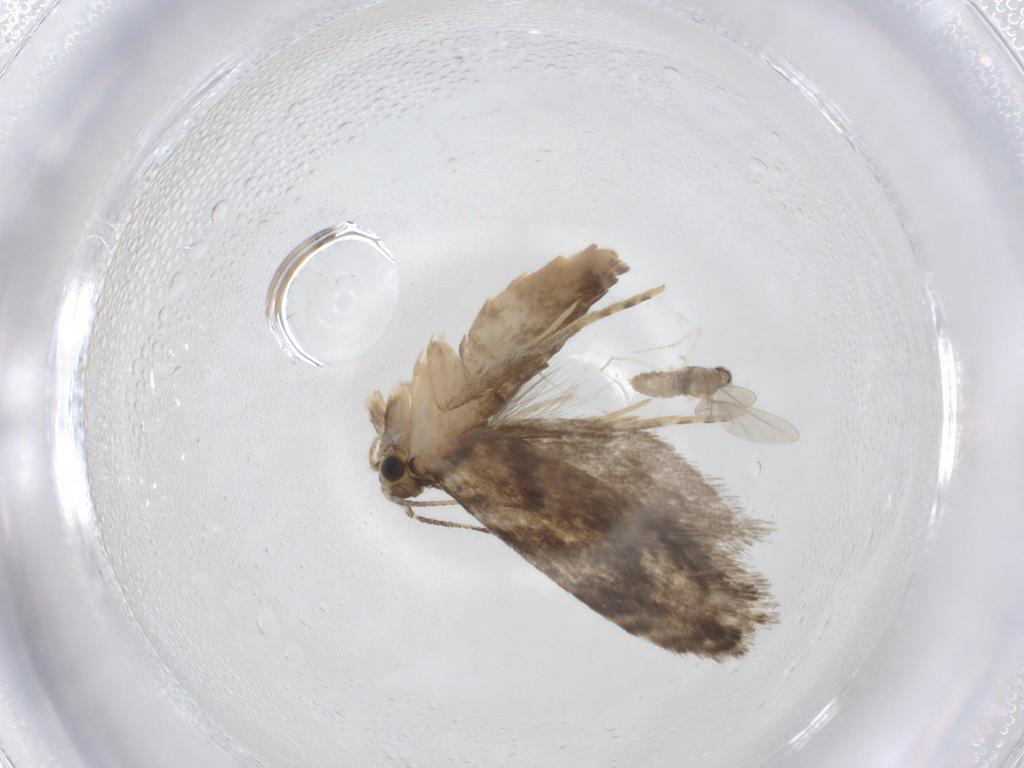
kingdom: Animalia
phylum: Arthropoda
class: Insecta
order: Lepidoptera
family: Tineidae
